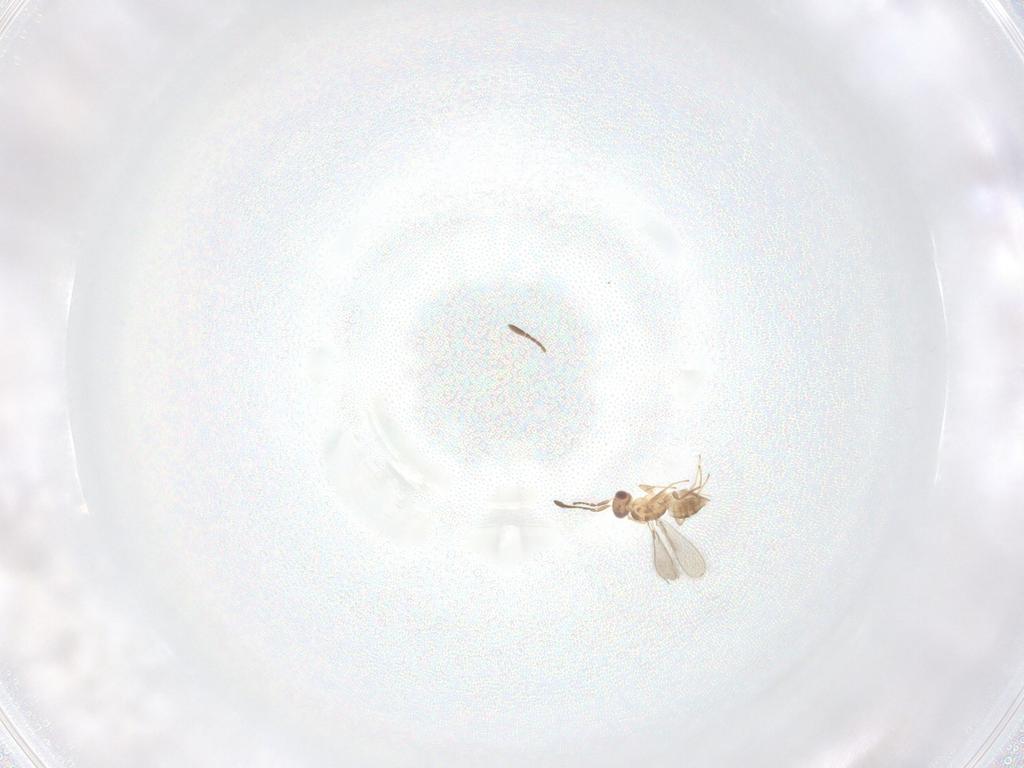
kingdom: Animalia
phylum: Arthropoda
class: Insecta
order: Hymenoptera
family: Mymaridae
